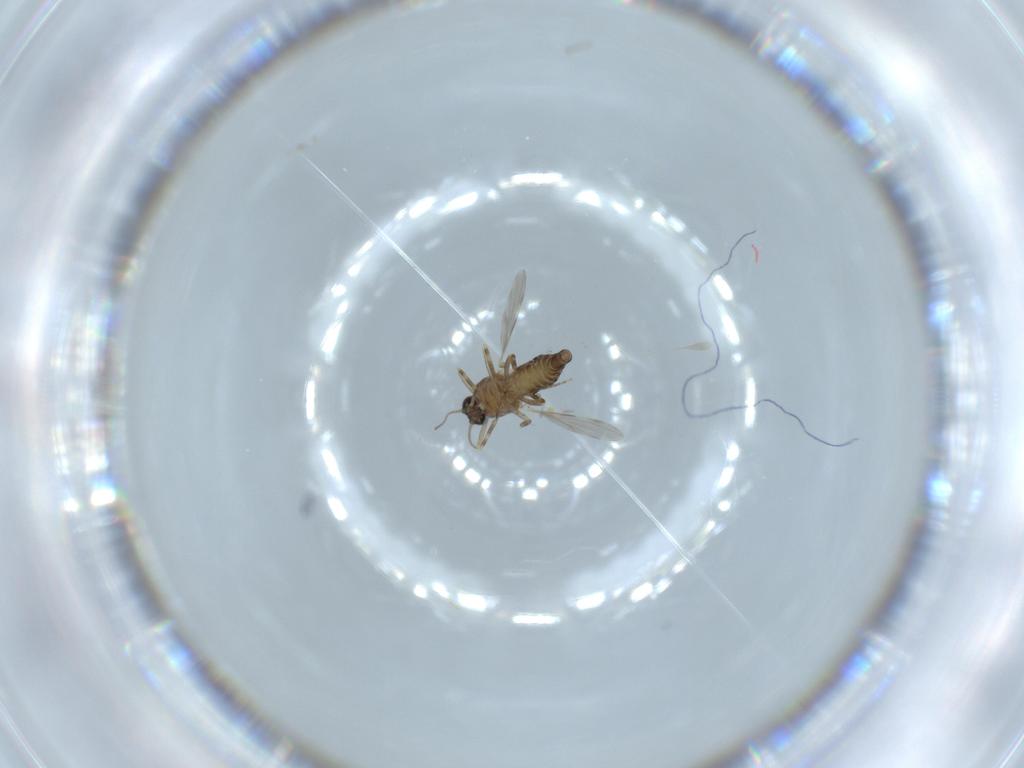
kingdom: Animalia
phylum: Arthropoda
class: Insecta
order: Diptera
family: Ceratopogonidae
